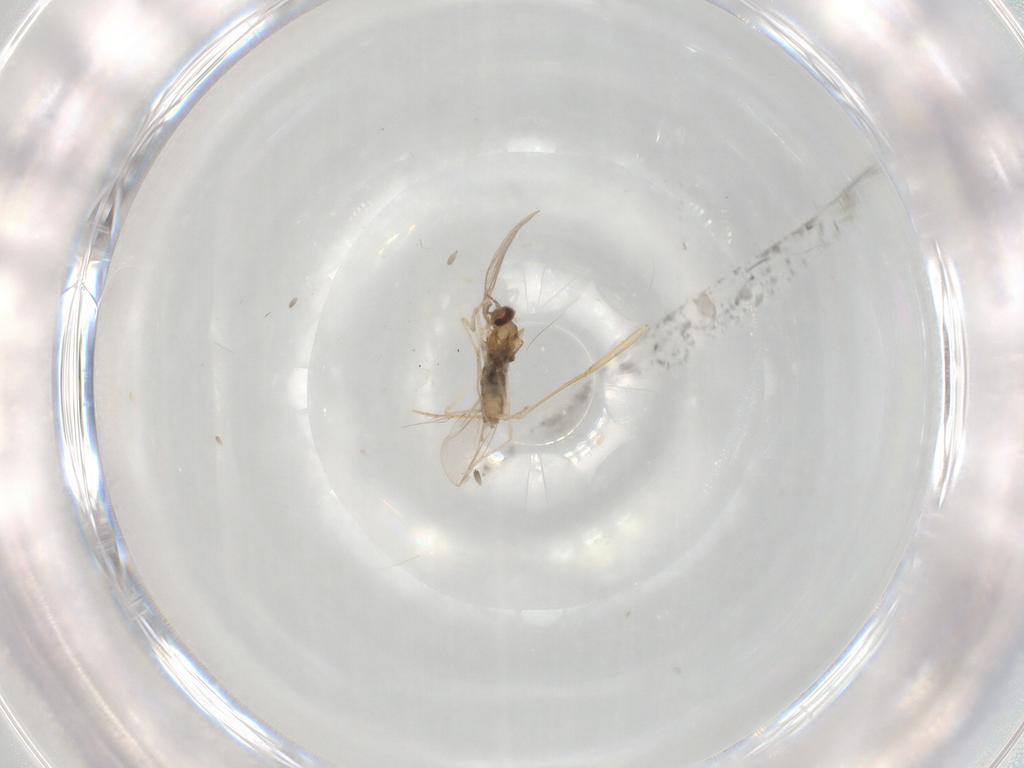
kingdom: Animalia
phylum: Arthropoda
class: Insecta
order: Diptera
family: Cecidomyiidae
